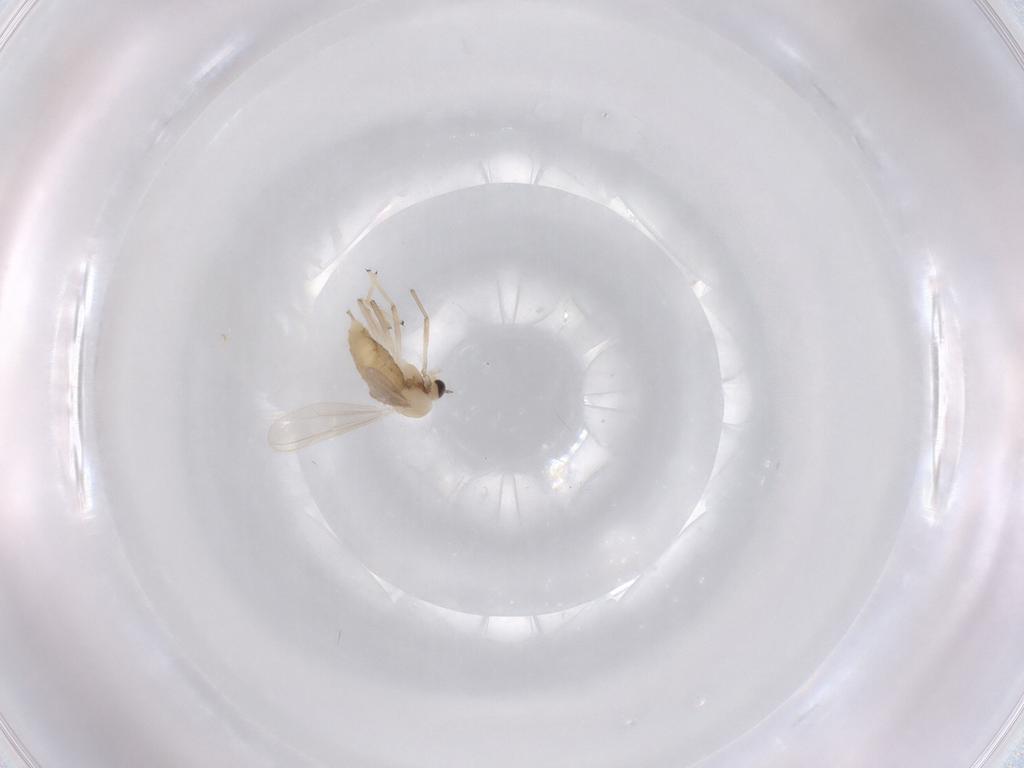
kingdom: Animalia
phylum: Arthropoda
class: Insecta
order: Diptera
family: Chironomidae
